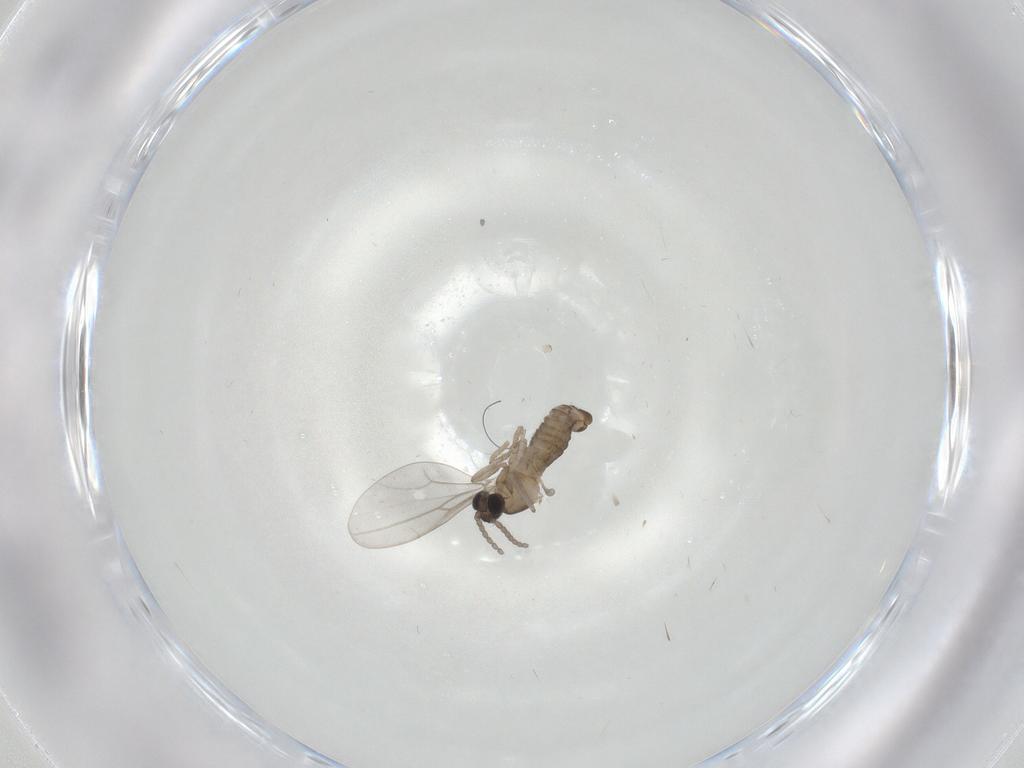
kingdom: Animalia
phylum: Arthropoda
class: Insecta
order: Diptera
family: Cecidomyiidae
